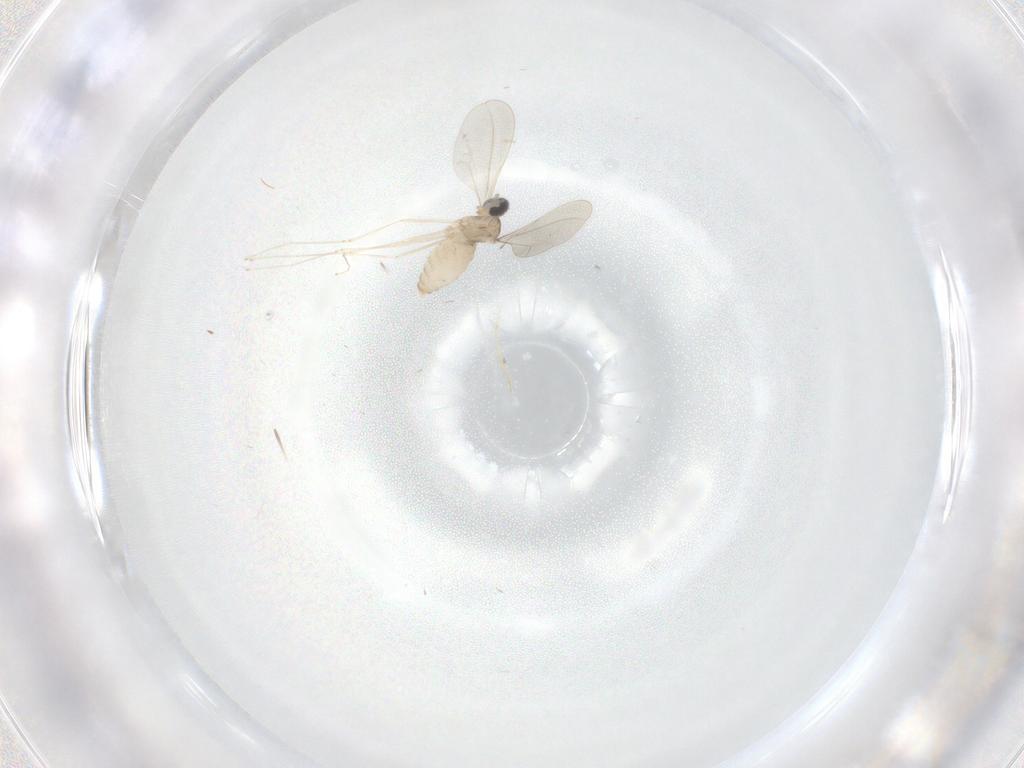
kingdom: Animalia
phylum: Arthropoda
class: Insecta
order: Diptera
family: Cecidomyiidae
